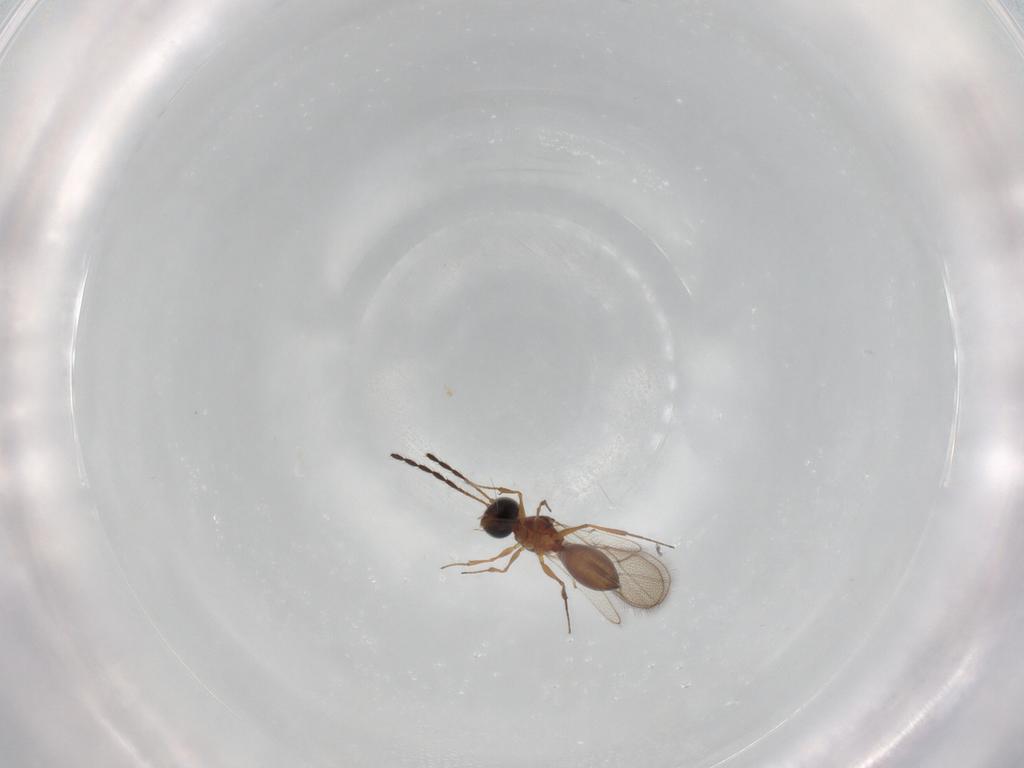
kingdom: Animalia
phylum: Arthropoda
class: Insecta
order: Hymenoptera
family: Figitidae
